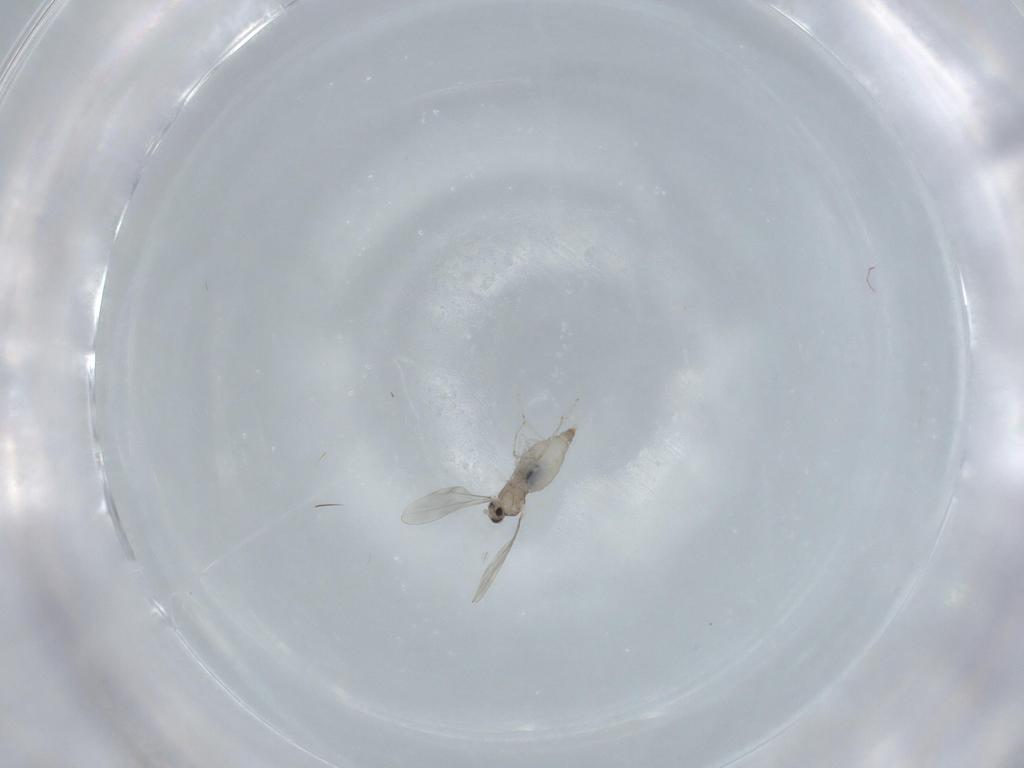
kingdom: Animalia
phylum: Arthropoda
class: Insecta
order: Diptera
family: Cecidomyiidae
